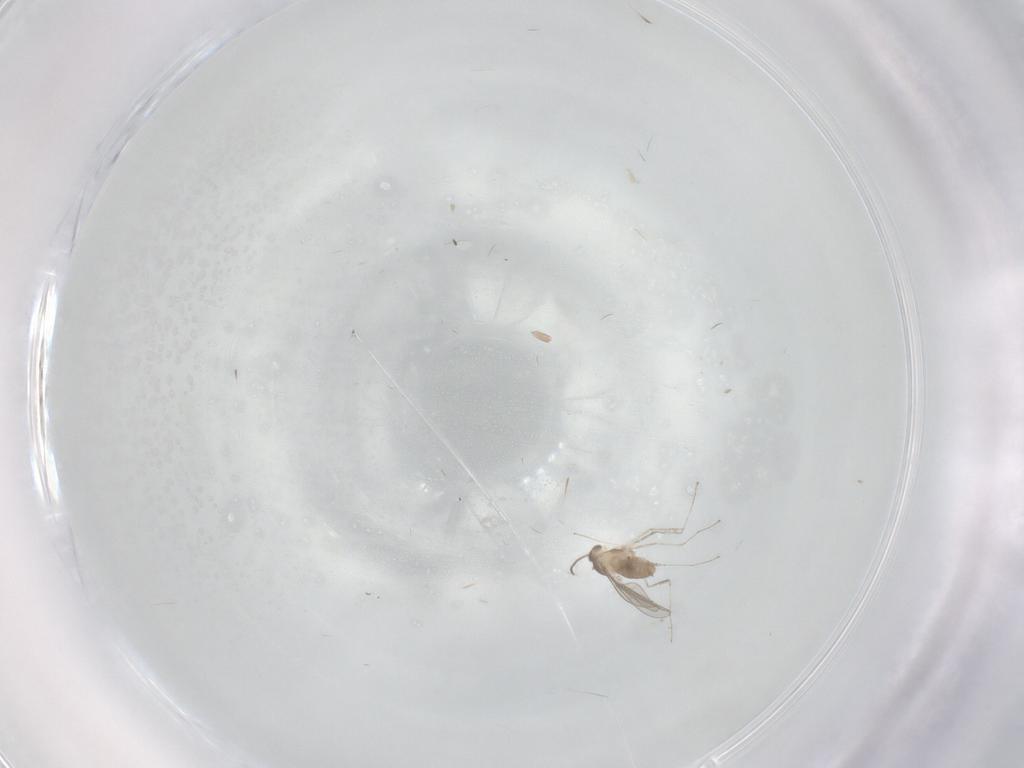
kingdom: Animalia
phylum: Arthropoda
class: Insecta
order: Diptera
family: Cecidomyiidae
